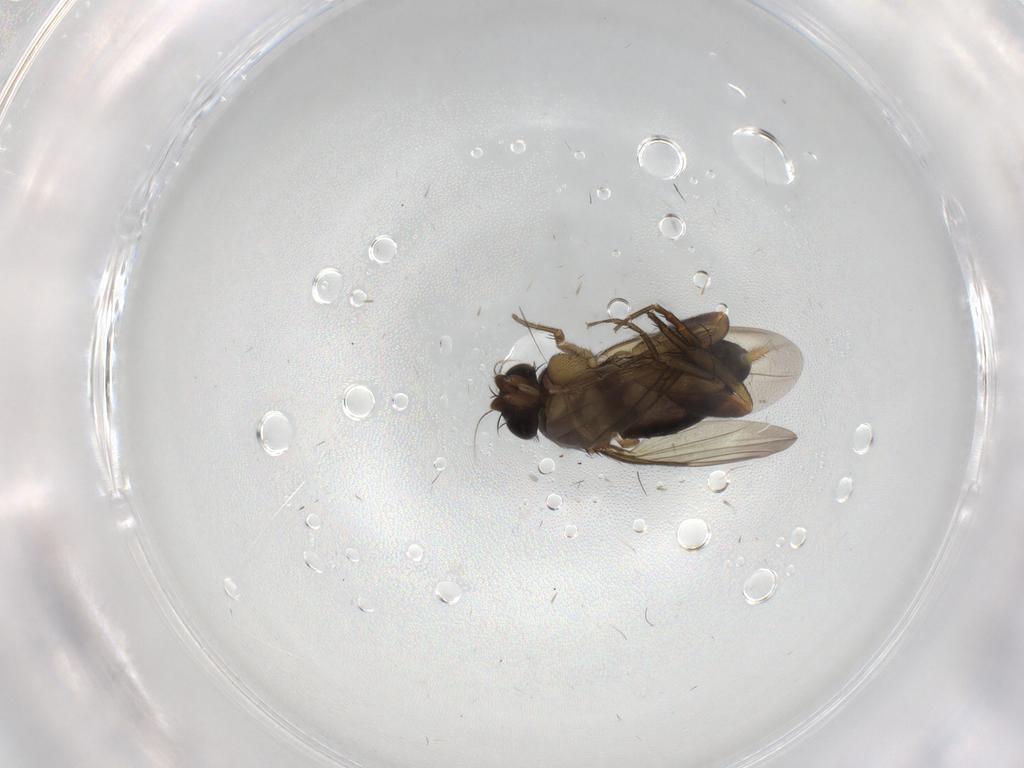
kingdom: Animalia
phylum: Arthropoda
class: Insecta
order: Diptera
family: Phoridae
